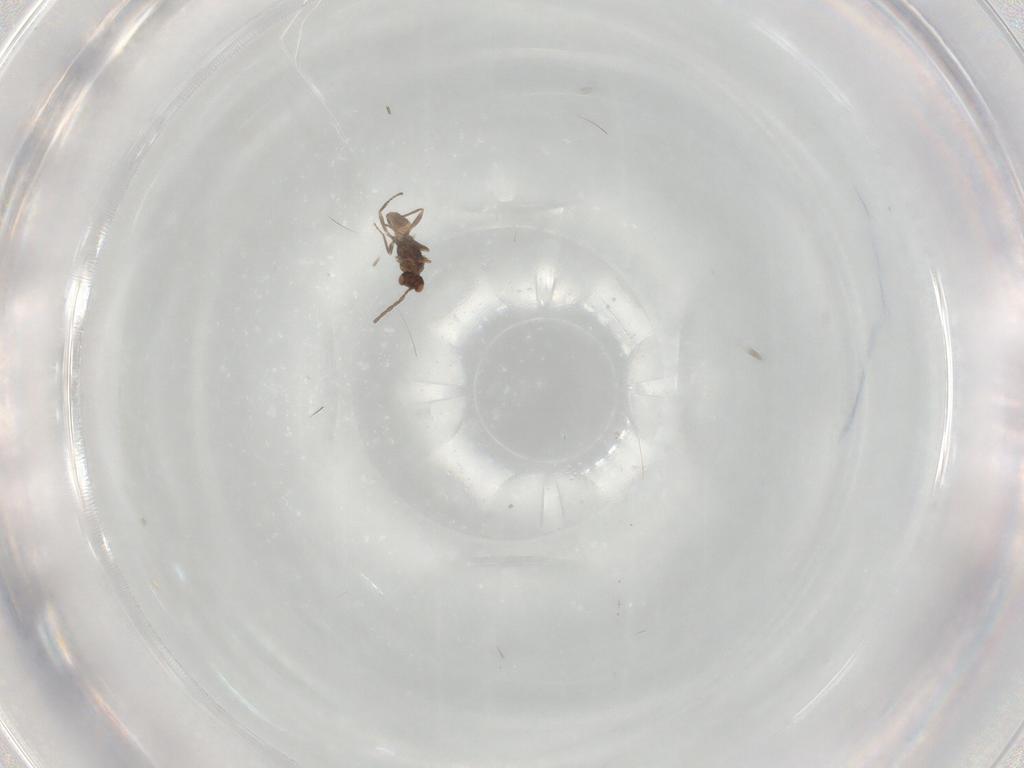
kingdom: Animalia
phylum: Arthropoda
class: Insecta
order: Hymenoptera
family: Mymaridae
